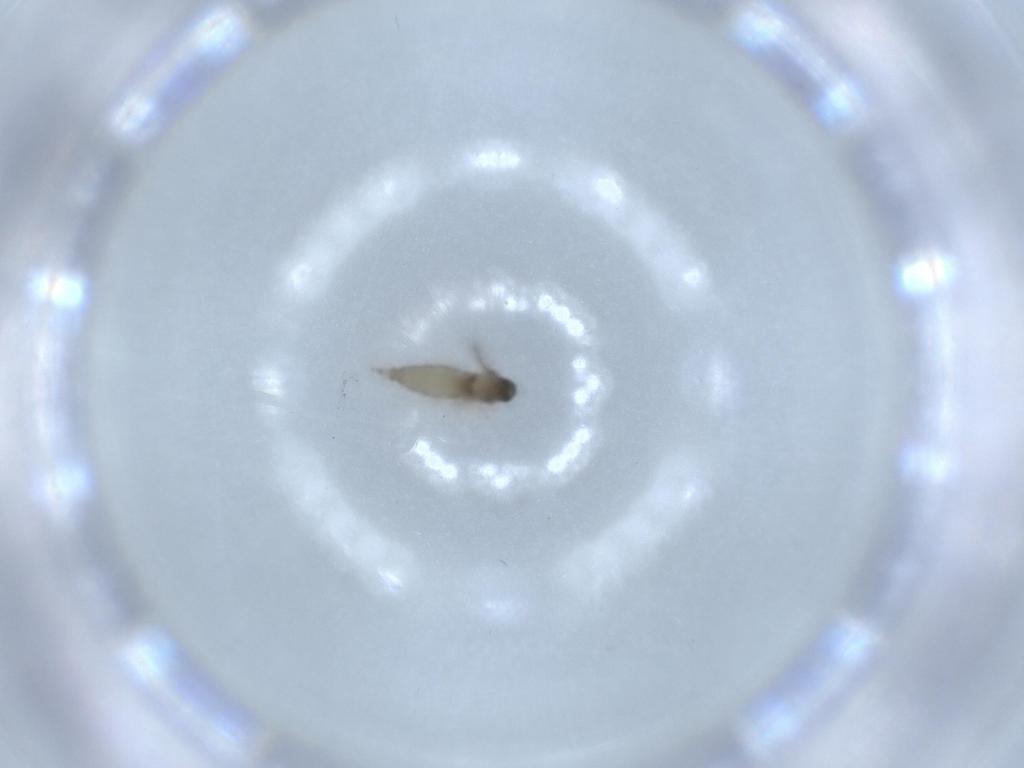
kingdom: Animalia
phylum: Arthropoda
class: Insecta
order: Diptera
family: Sciaridae
